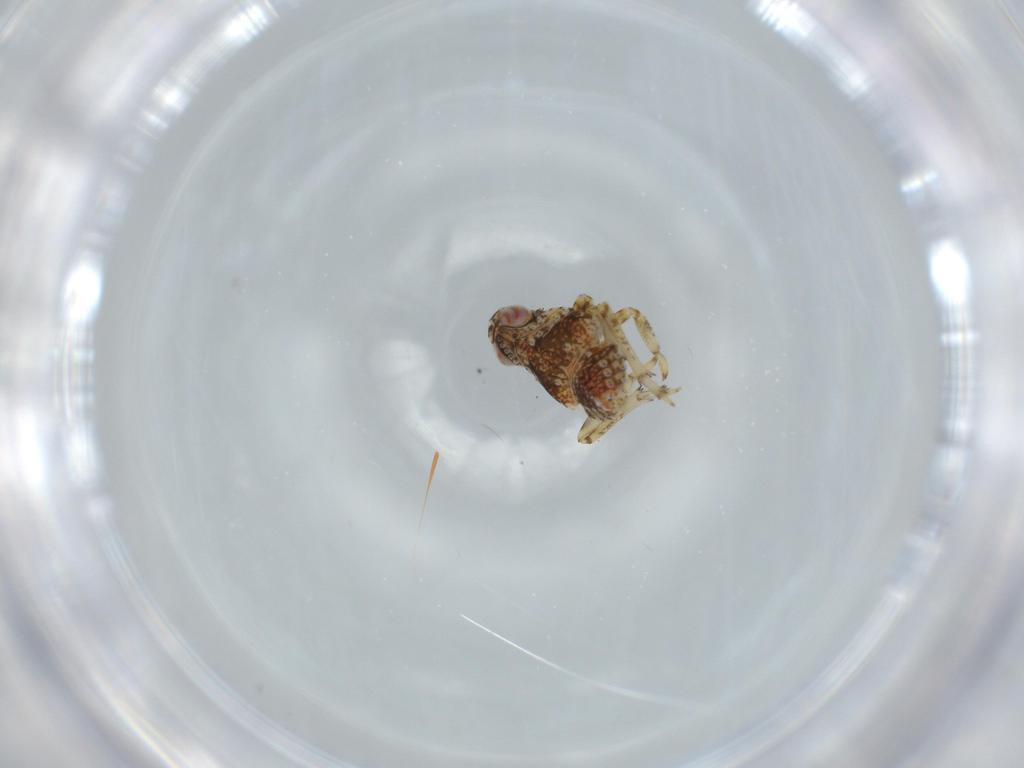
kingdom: Animalia
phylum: Arthropoda
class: Insecta
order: Hemiptera
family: Issidae
